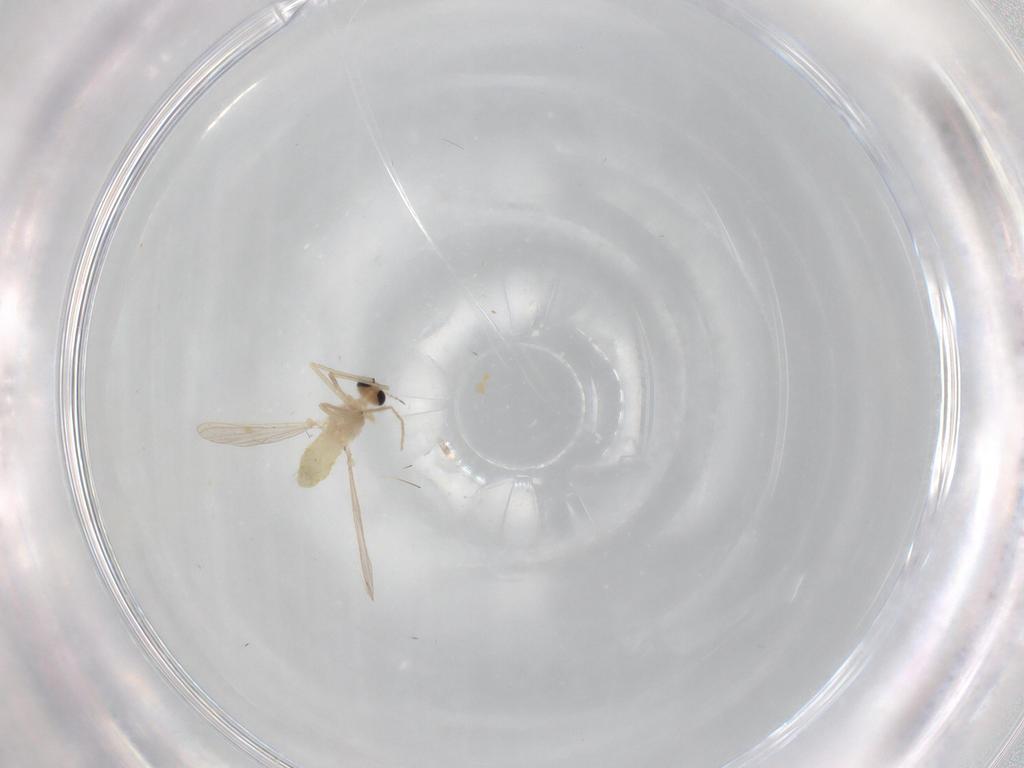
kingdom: Animalia
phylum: Arthropoda
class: Insecta
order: Diptera
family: Chironomidae
